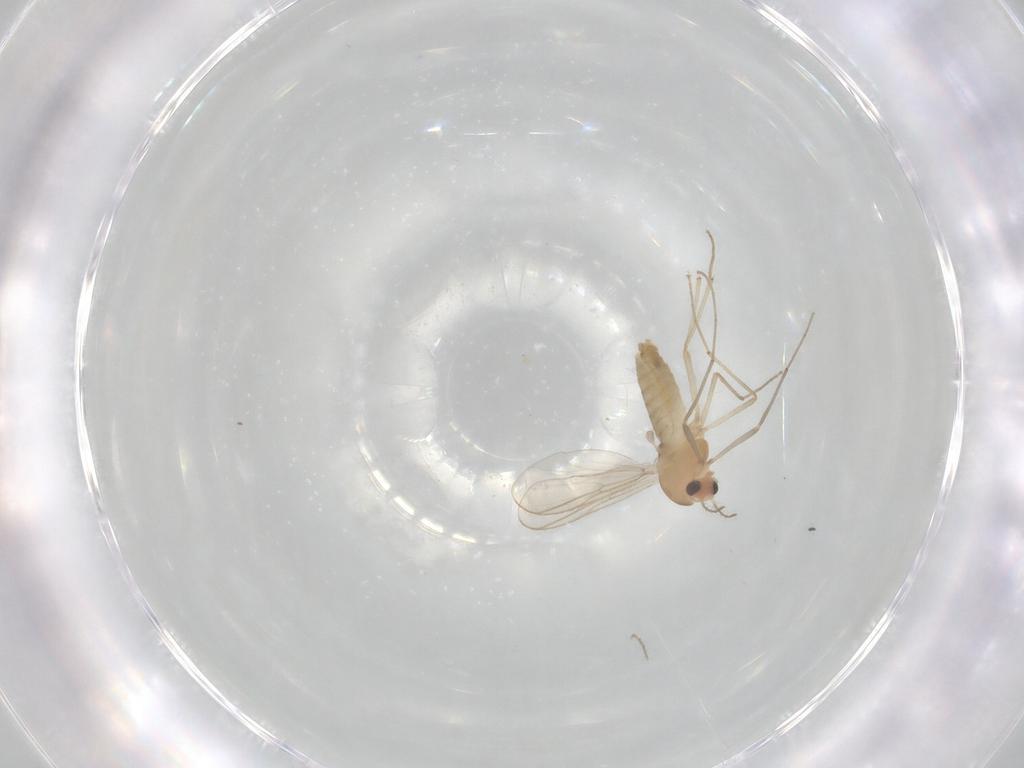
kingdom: Animalia
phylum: Arthropoda
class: Insecta
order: Diptera
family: Chironomidae
